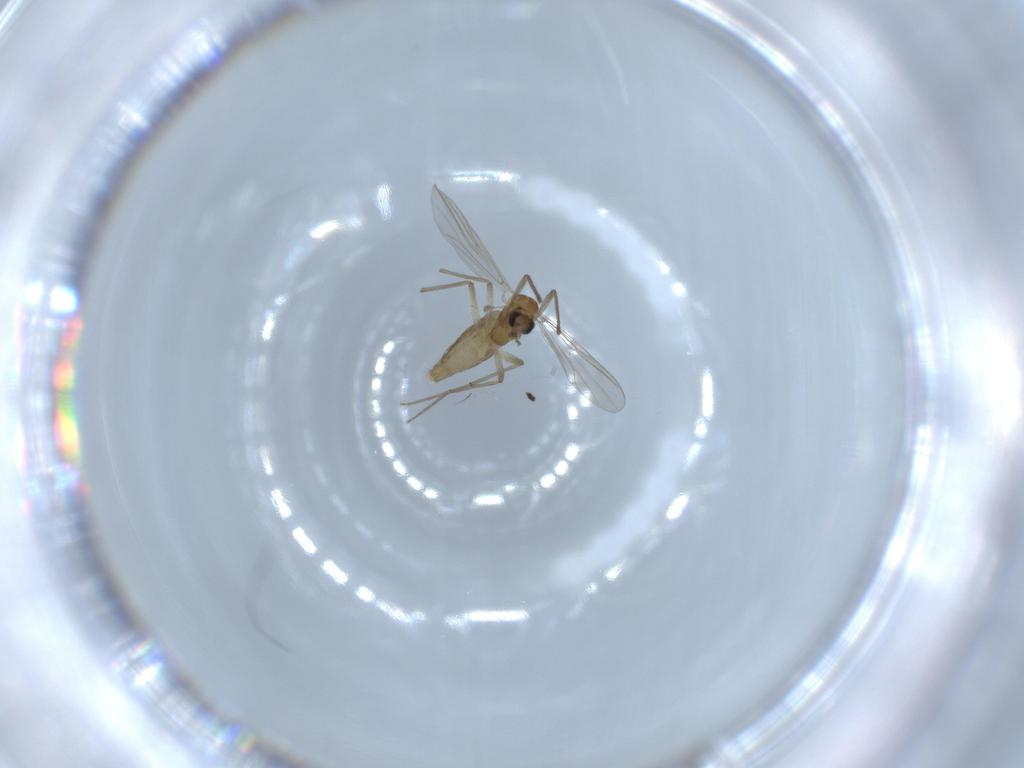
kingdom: Animalia
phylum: Arthropoda
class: Insecta
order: Diptera
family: Chironomidae
